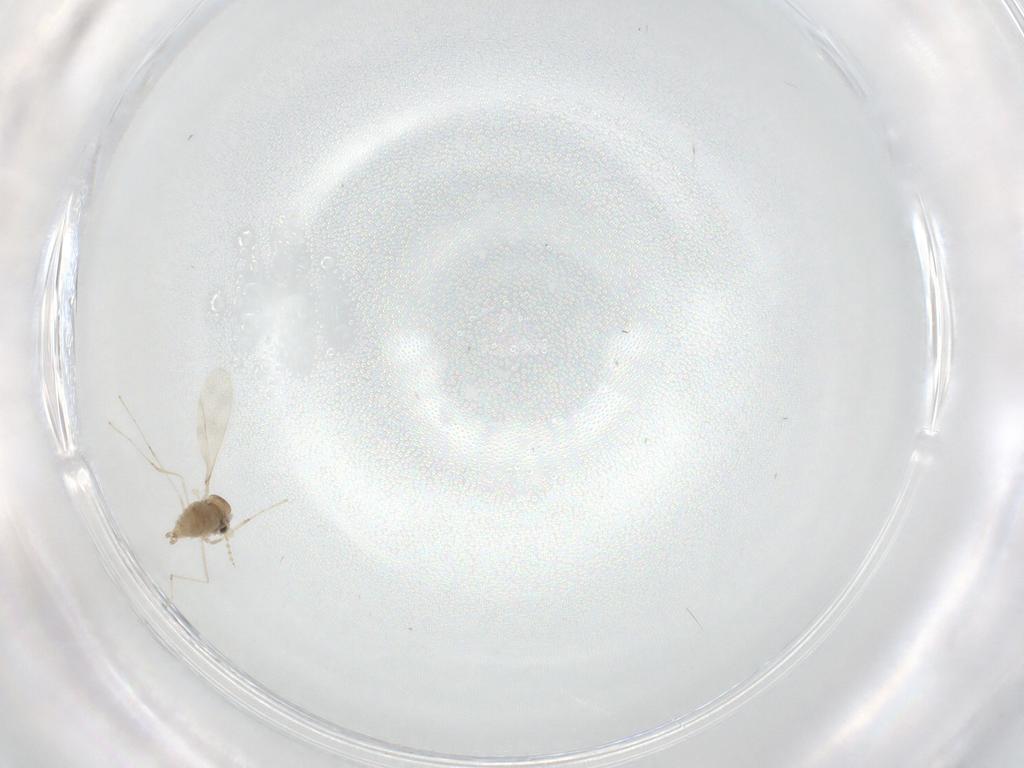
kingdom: Animalia
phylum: Arthropoda
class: Insecta
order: Diptera
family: Cecidomyiidae
